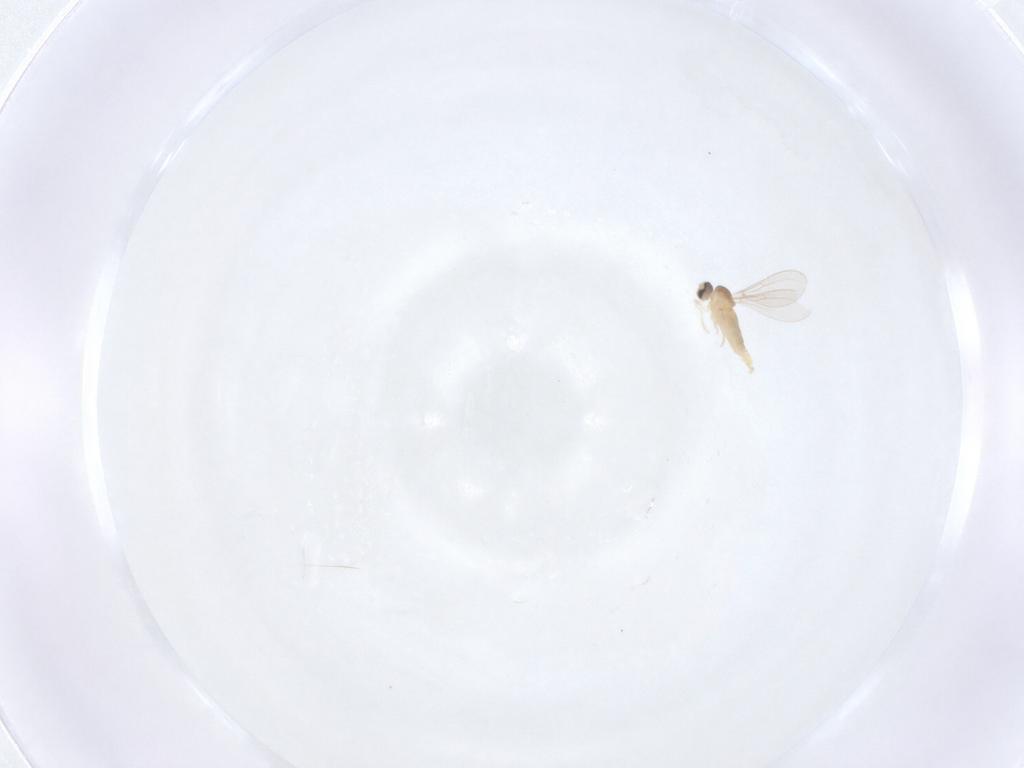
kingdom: Animalia
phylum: Arthropoda
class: Insecta
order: Diptera
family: Cecidomyiidae
